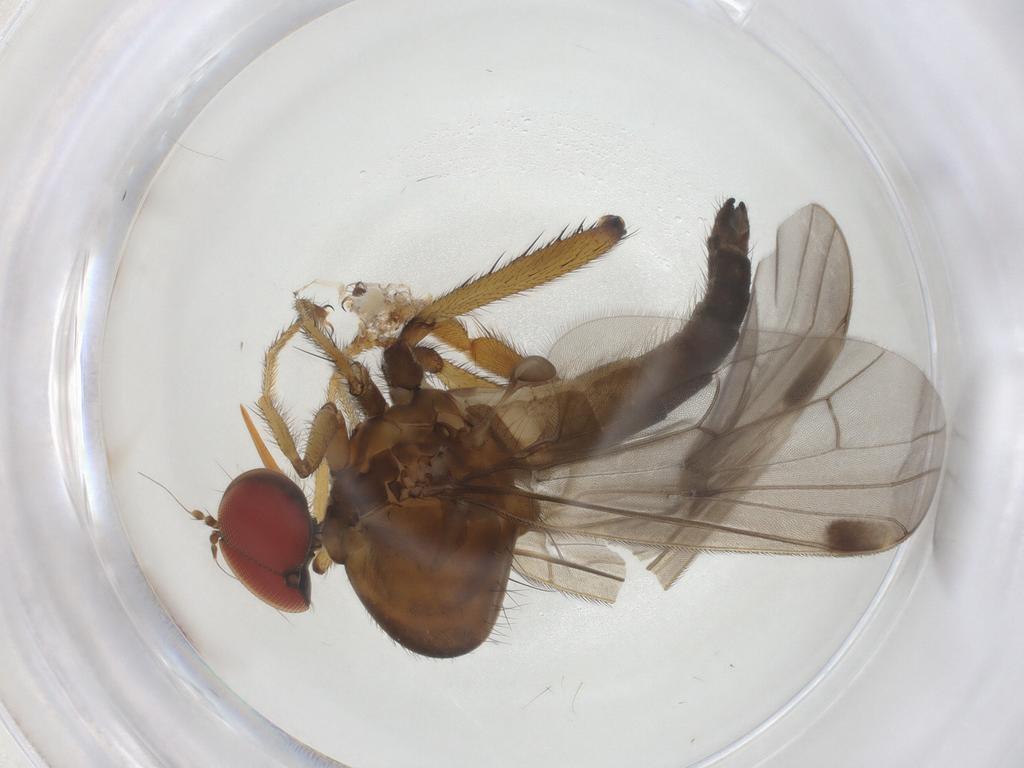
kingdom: Animalia
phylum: Arthropoda
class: Insecta
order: Diptera
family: Hybotidae
